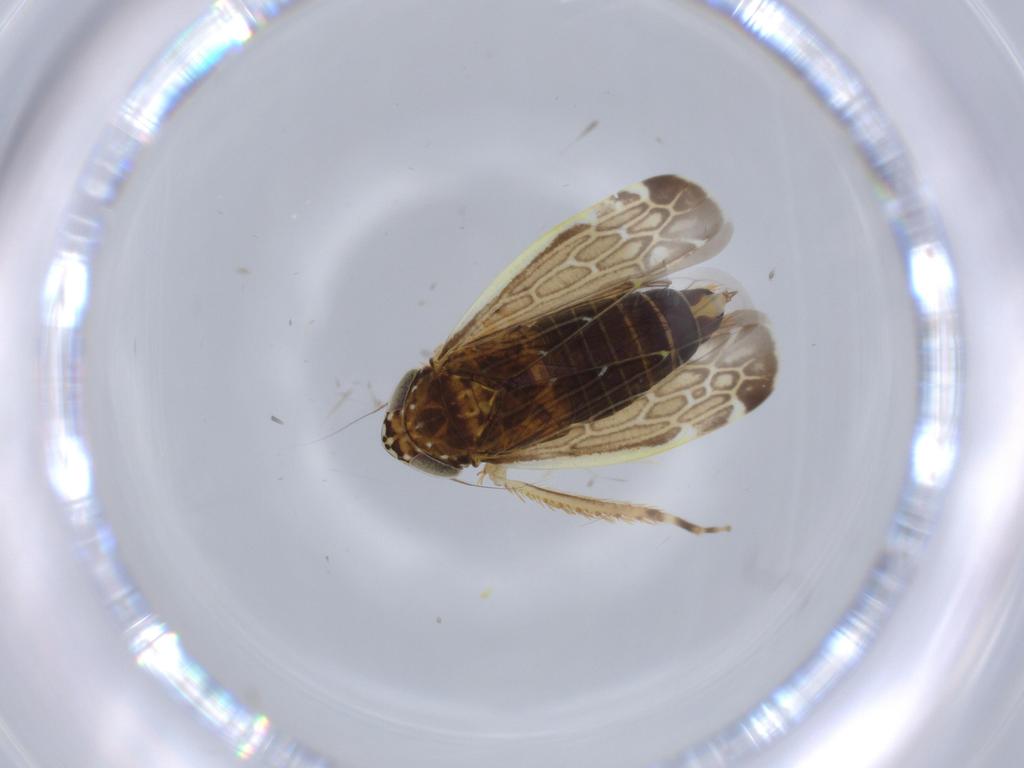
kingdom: Animalia
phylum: Arthropoda
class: Insecta
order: Hemiptera
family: Cicadellidae
